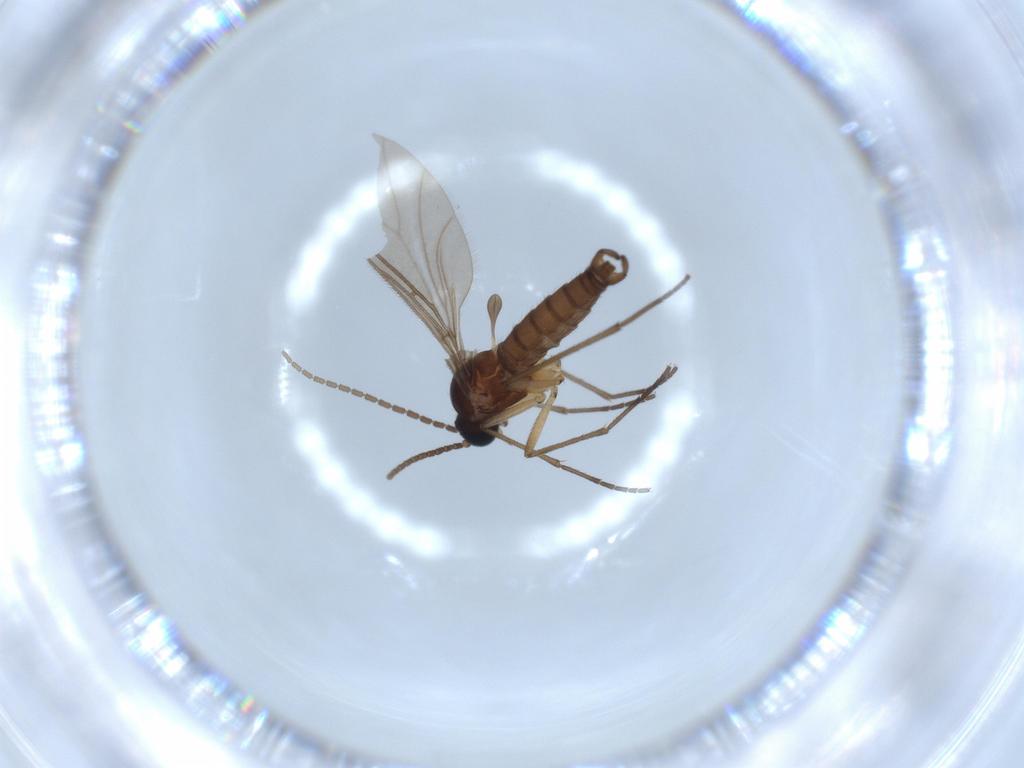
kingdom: Animalia
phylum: Arthropoda
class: Insecta
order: Diptera
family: Sciaridae
